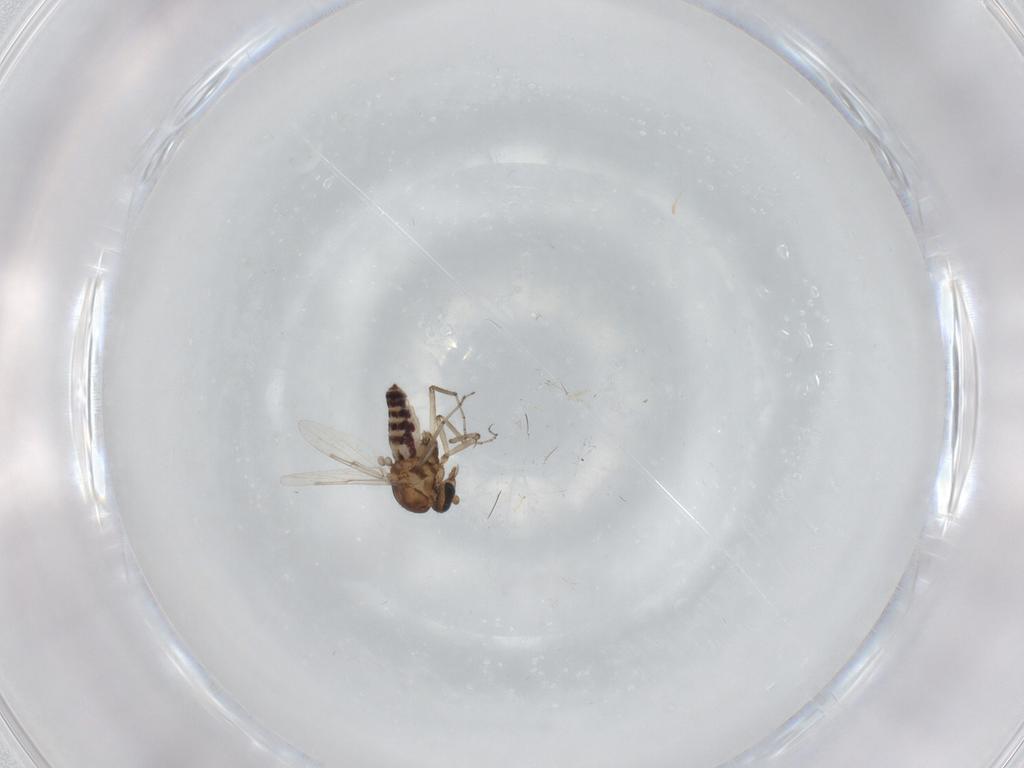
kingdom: Animalia
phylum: Arthropoda
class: Insecta
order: Diptera
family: Ceratopogonidae
